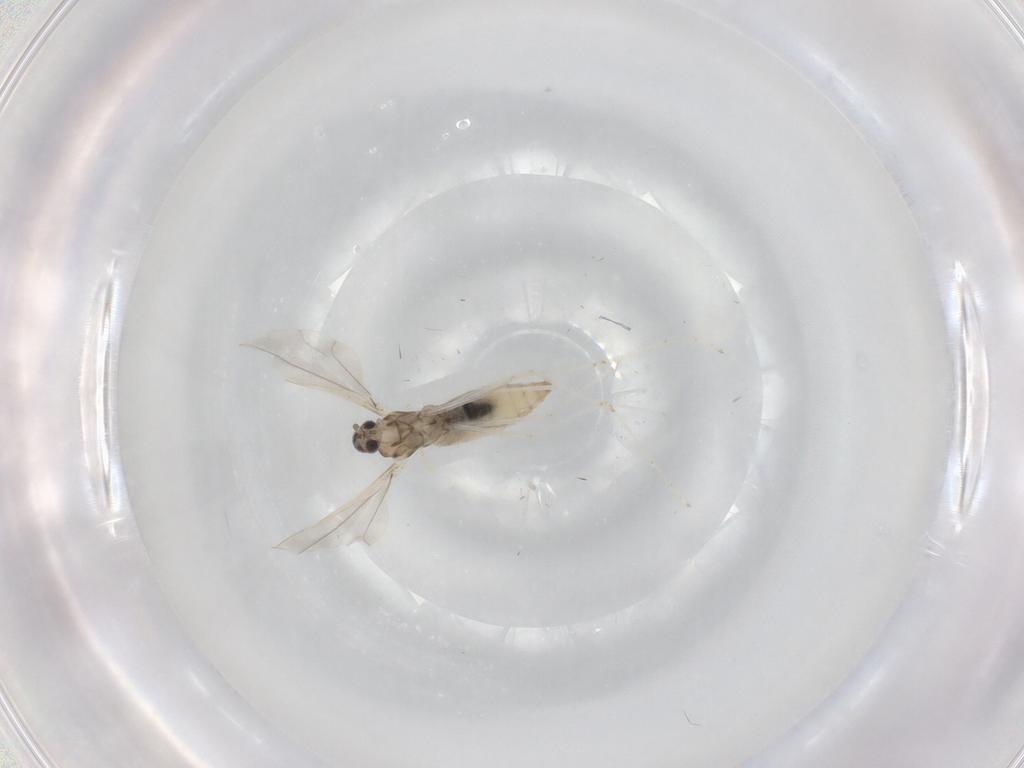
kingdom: Animalia
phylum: Arthropoda
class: Insecta
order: Diptera
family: Cecidomyiidae
